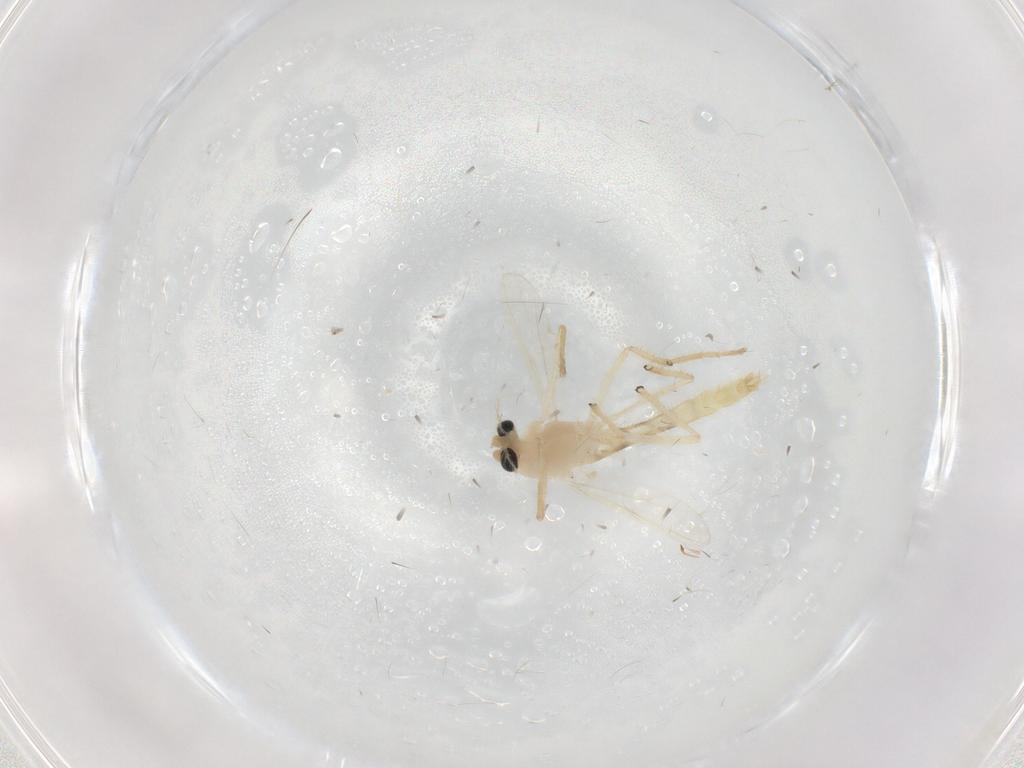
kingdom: Animalia
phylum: Arthropoda
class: Insecta
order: Diptera
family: Chironomidae
